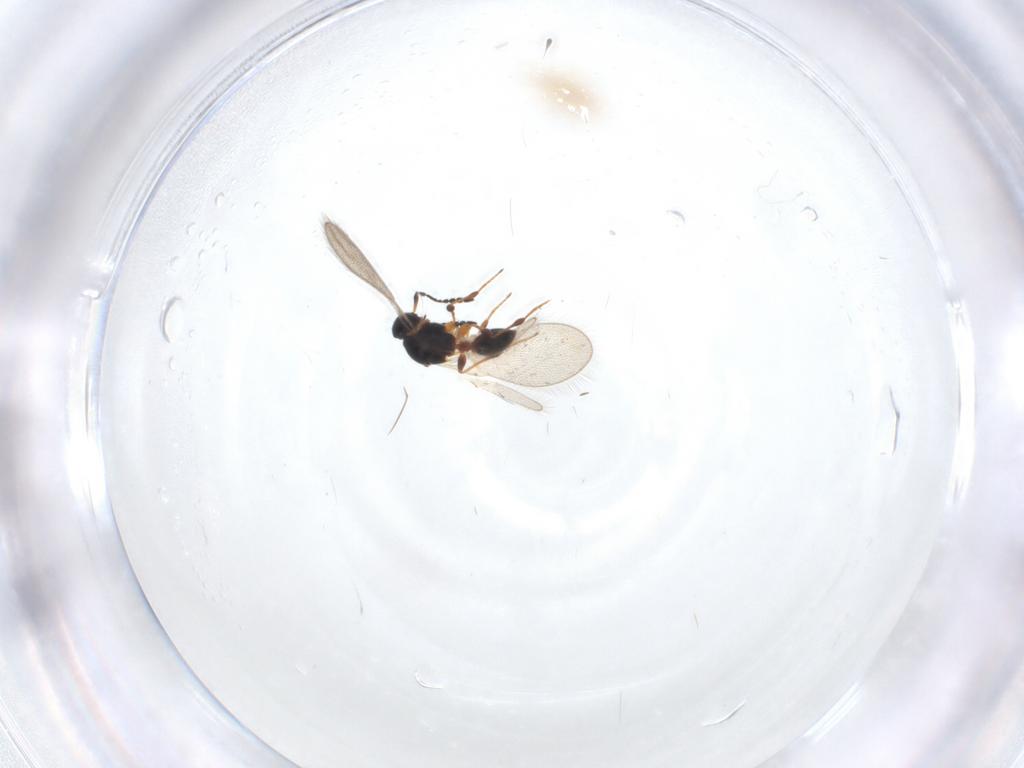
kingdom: Animalia
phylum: Arthropoda
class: Insecta
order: Hymenoptera
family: Platygastridae
